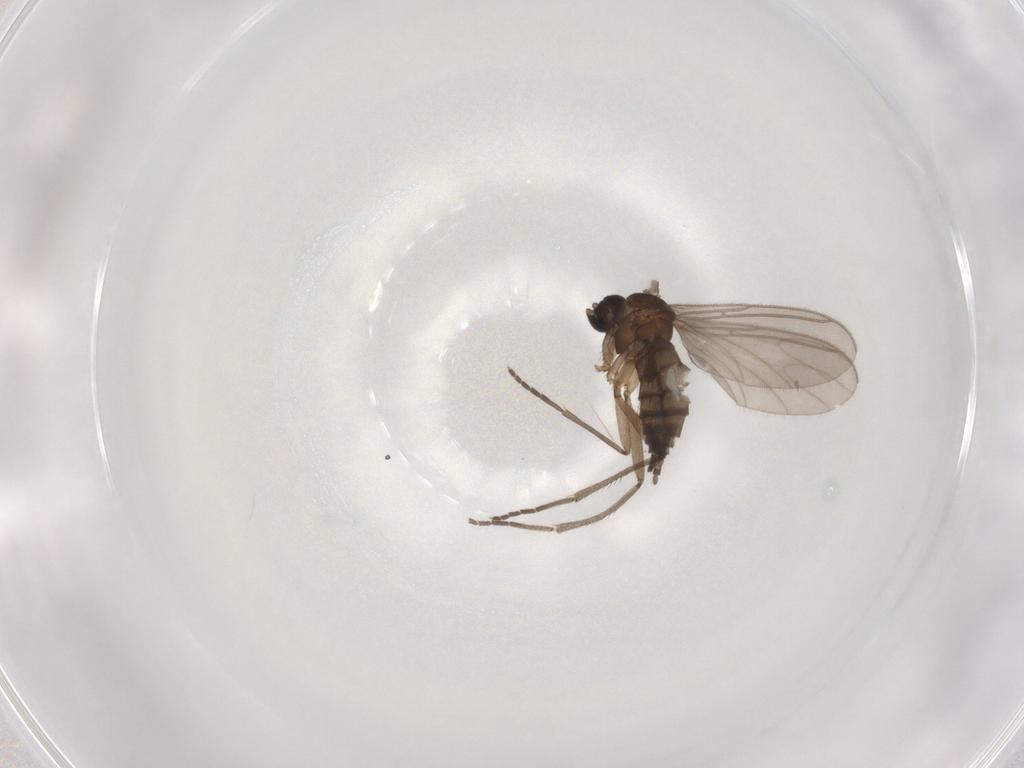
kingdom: Animalia
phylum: Arthropoda
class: Insecta
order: Diptera
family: Sciaridae
